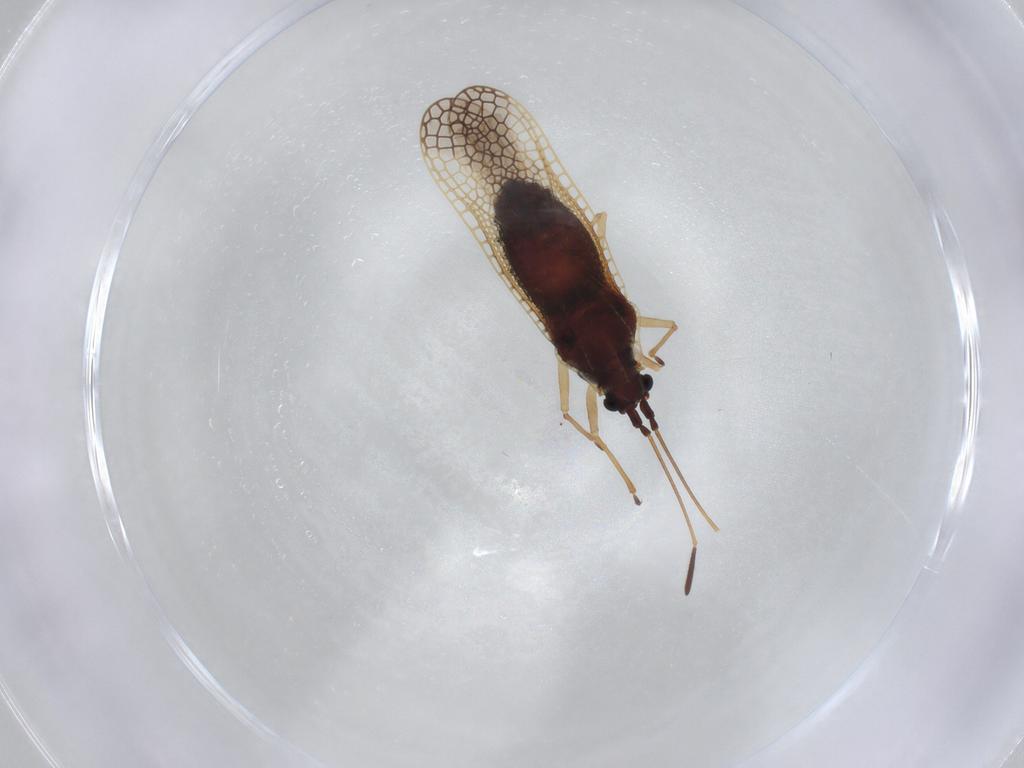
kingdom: Animalia
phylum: Arthropoda
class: Insecta
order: Hemiptera
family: Tingidae
